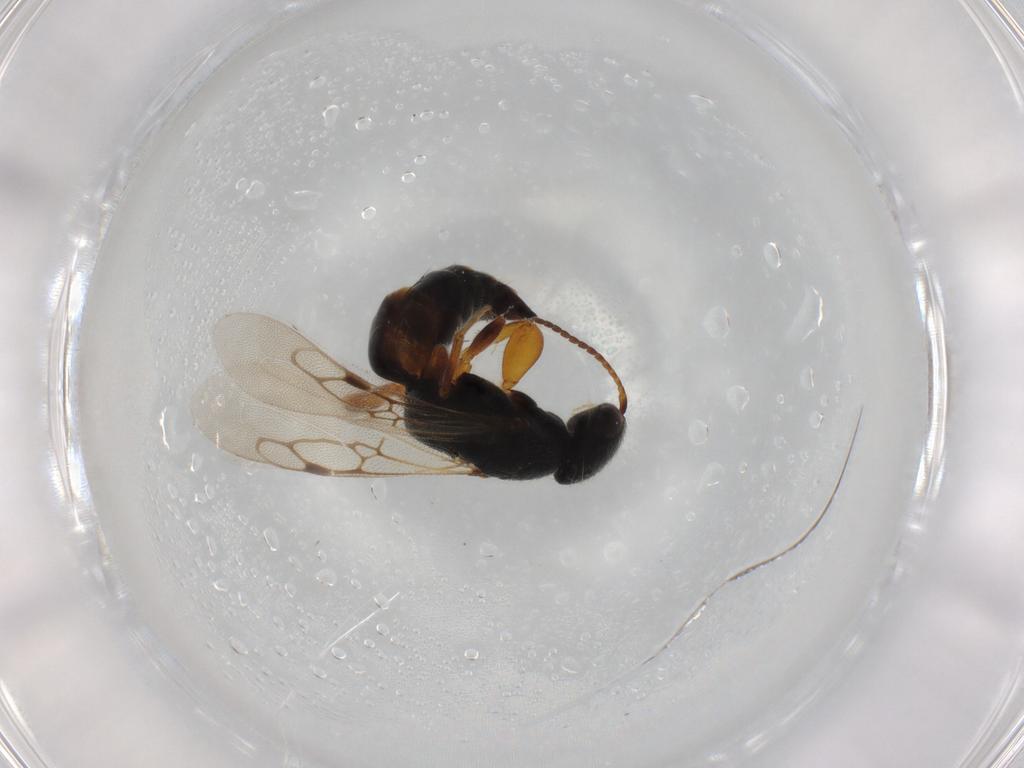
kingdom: Animalia
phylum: Arthropoda
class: Insecta
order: Hymenoptera
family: Bethylidae
